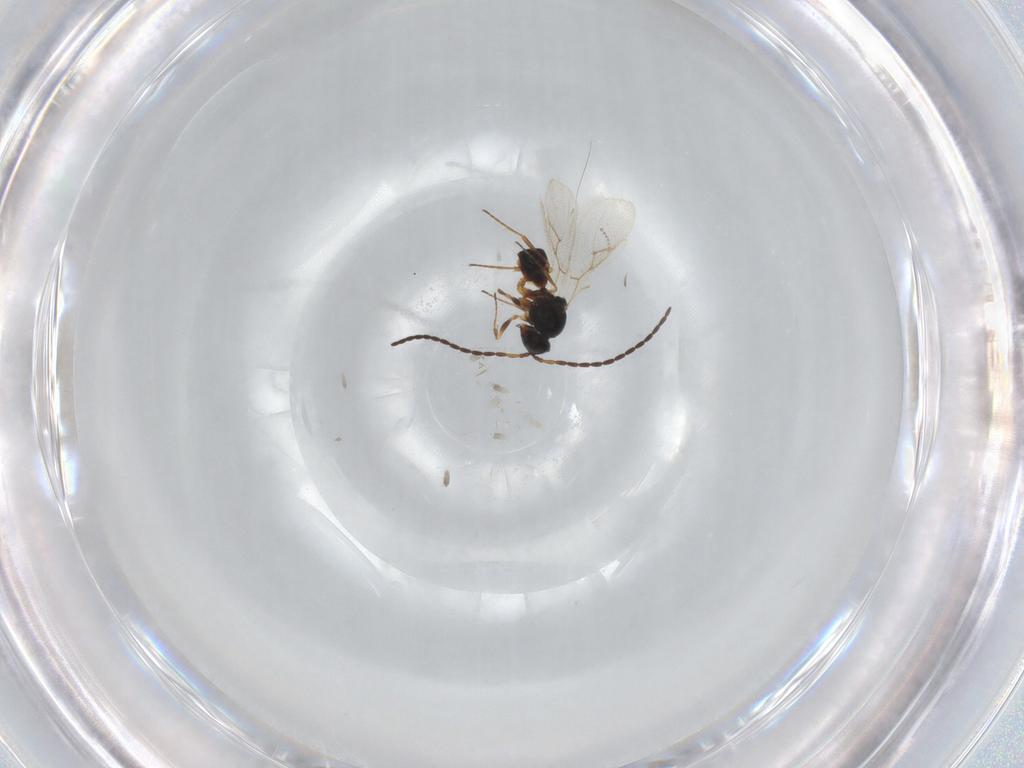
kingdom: Animalia
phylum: Arthropoda
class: Insecta
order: Hymenoptera
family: Figitidae
